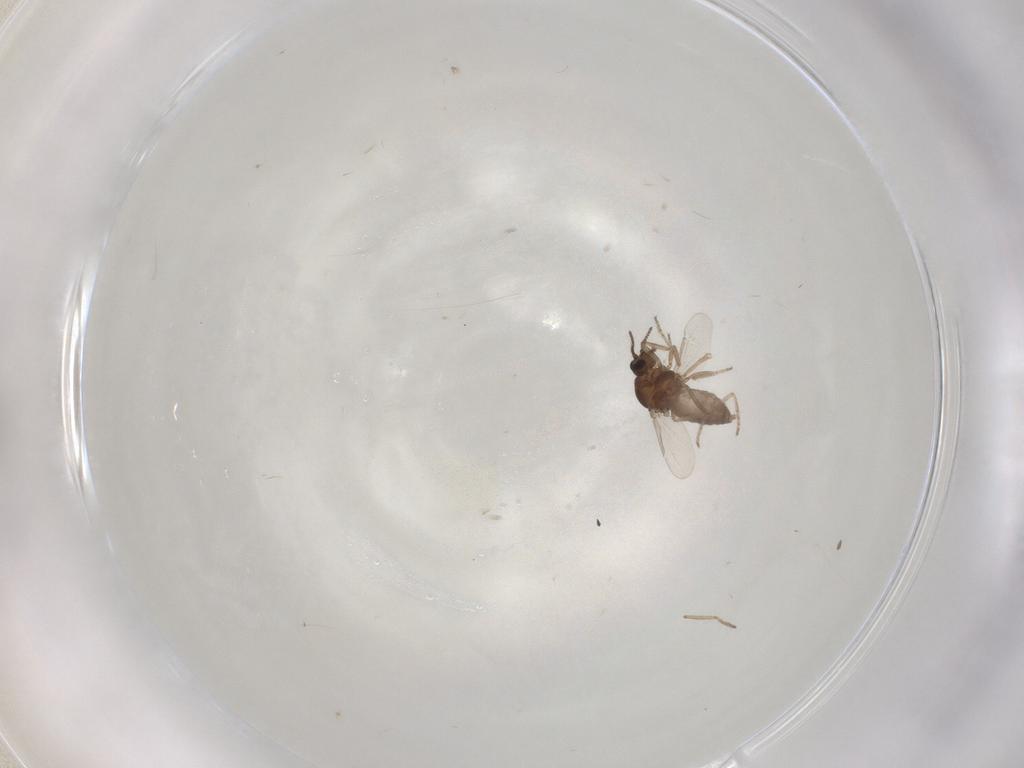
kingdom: Animalia
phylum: Arthropoda
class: Insecta
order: Diptera
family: Ceratopogonidae
